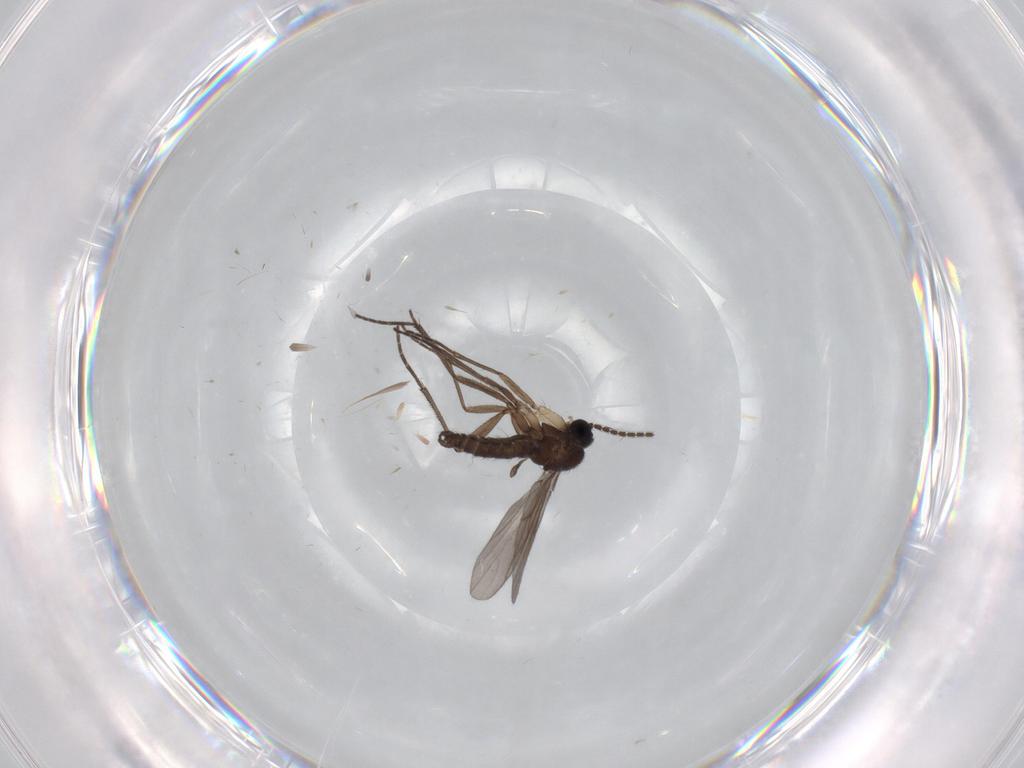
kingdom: Animalia
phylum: Arthropoda
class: Insecta
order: Diptera
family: Cecidomyiidae
